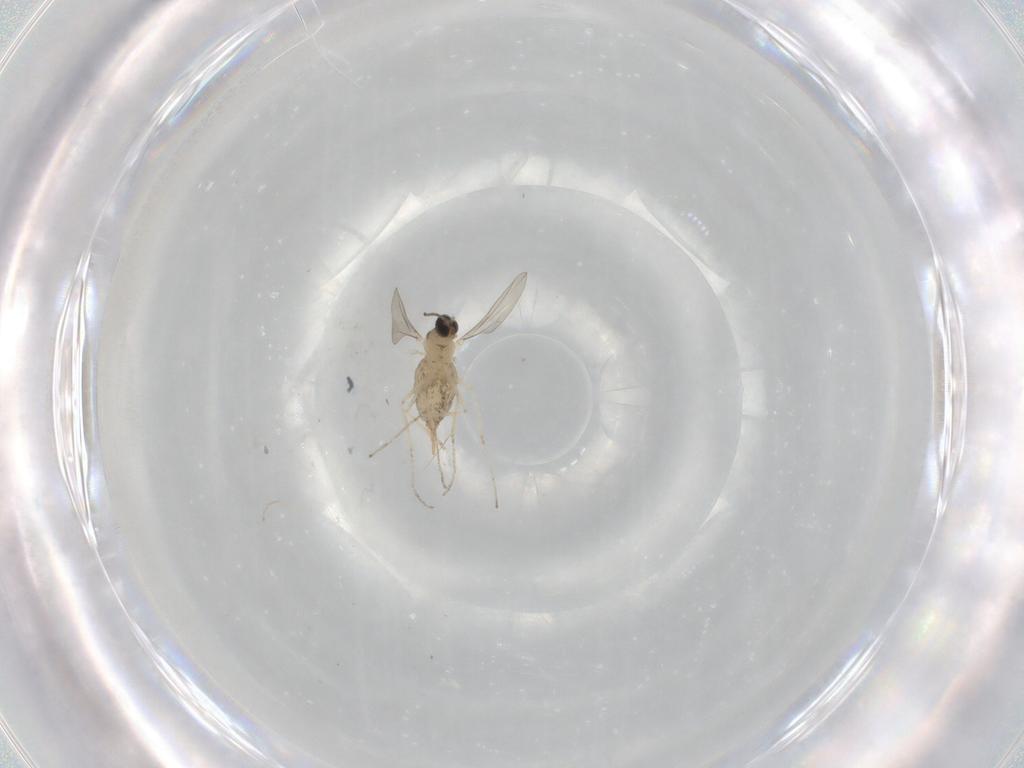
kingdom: Animalia
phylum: Arthropoda
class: Insecta
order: Diptera
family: Cecidomyiidae
